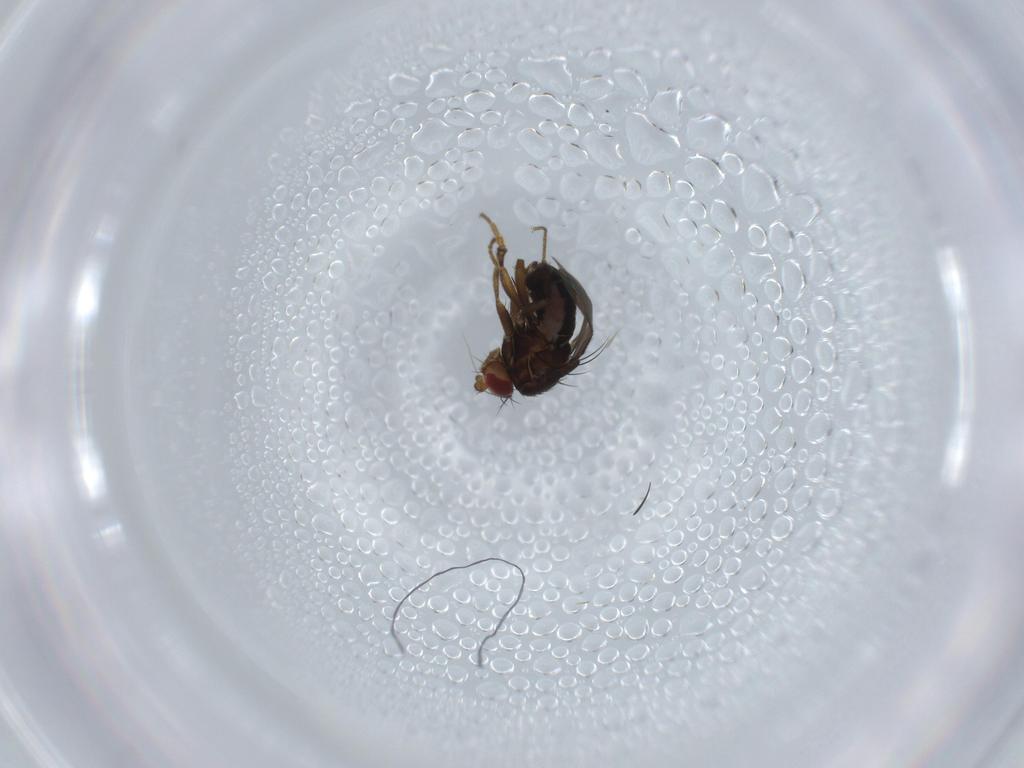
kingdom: Animalia
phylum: Arthropoda
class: Insecta
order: Diptera
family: Sphaeroceridae
